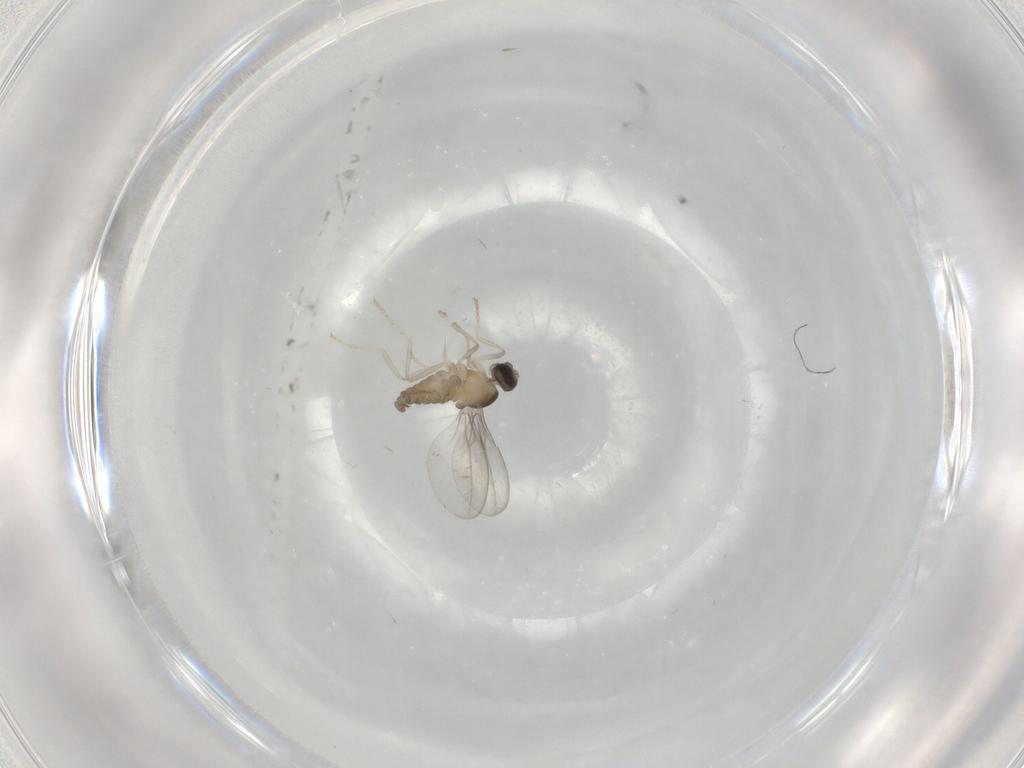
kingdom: Animalia
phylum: Arthropoda
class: Insecta
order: Diptera
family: Cecidomyiidae
